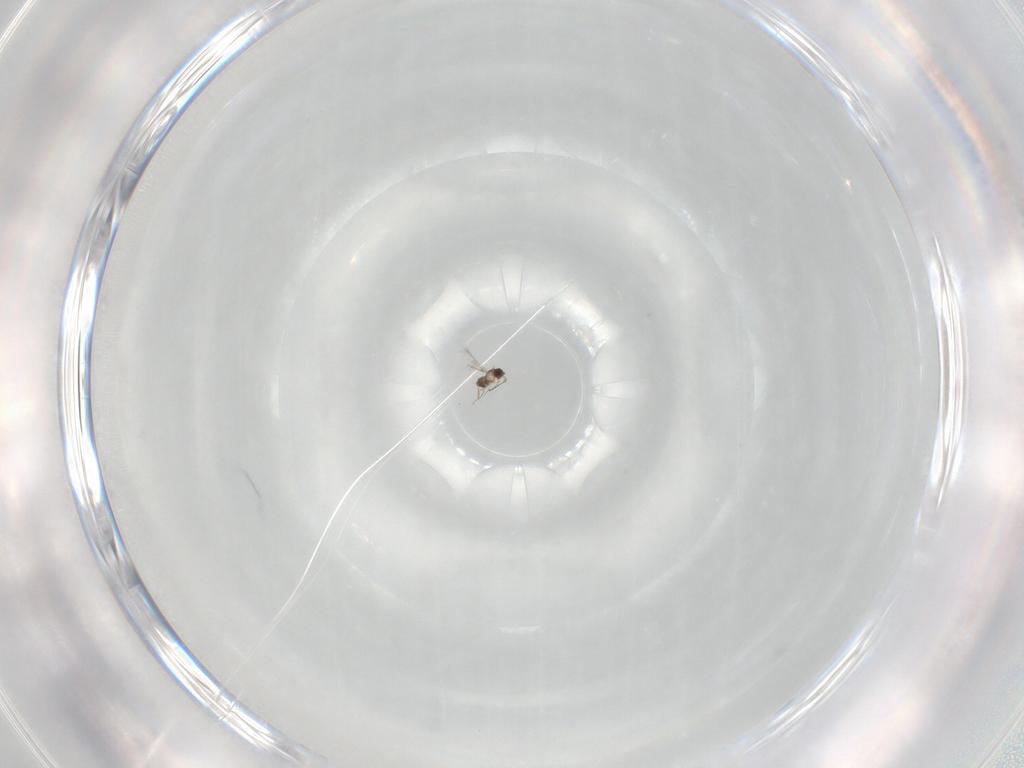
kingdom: Animalia
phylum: Arthropoda
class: Insecta
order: Hymenoptera
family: Mymaridae
